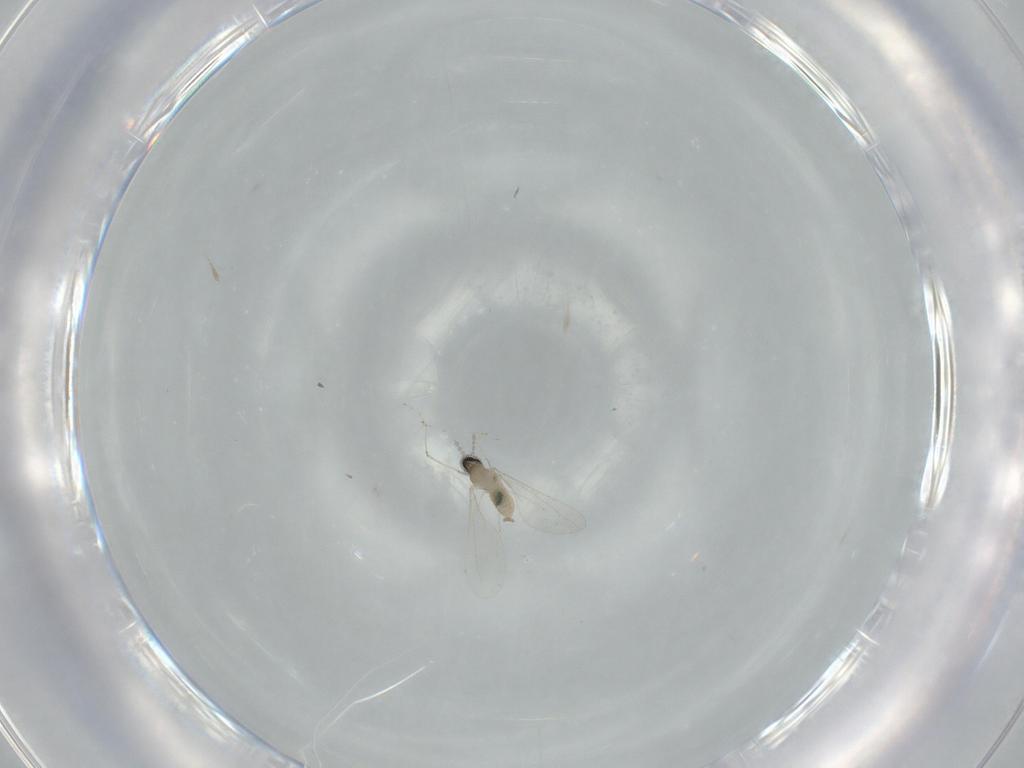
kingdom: Animalia
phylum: Arthropoda
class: Insecta
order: Diptera
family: Cecidomyiidae
